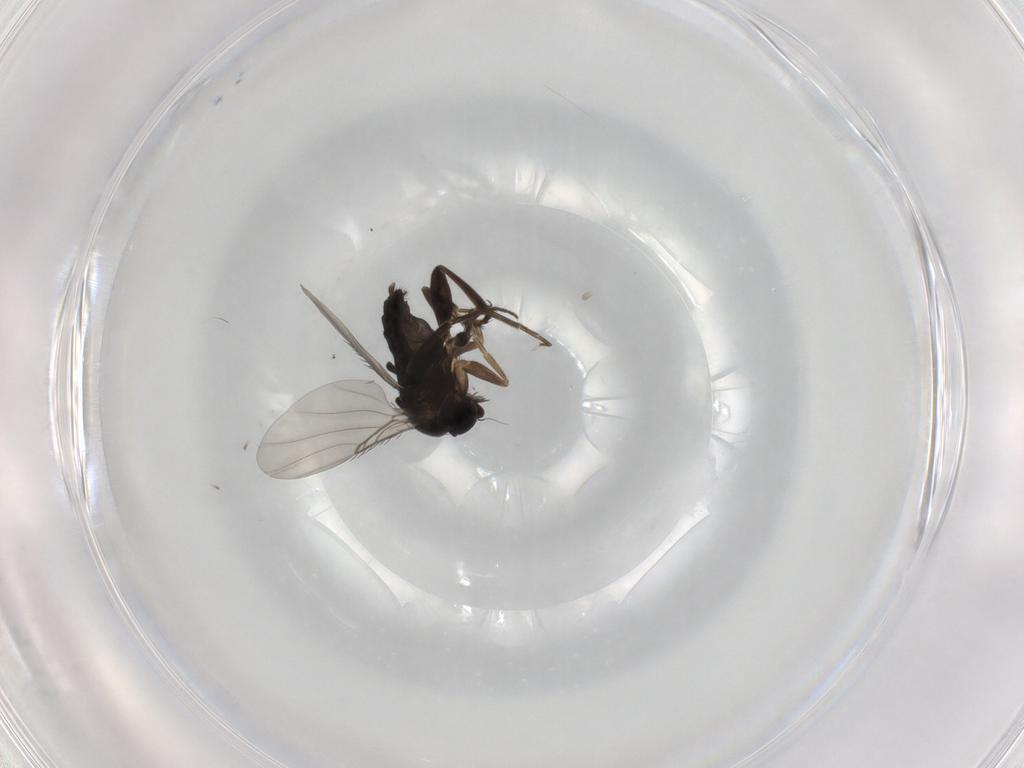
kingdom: Animalia
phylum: Arthropoda
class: Insecta
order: Diptera
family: Phoridae
